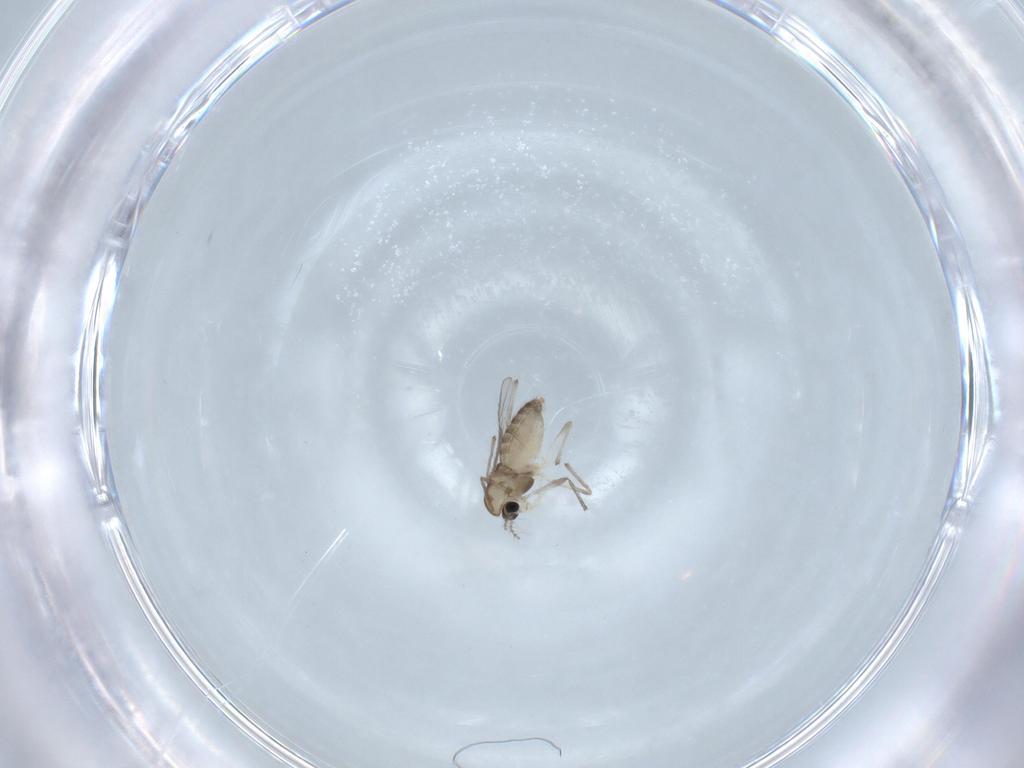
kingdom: Animalia
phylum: Arthropoda
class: Insecta
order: Diptera
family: Chironomidae
